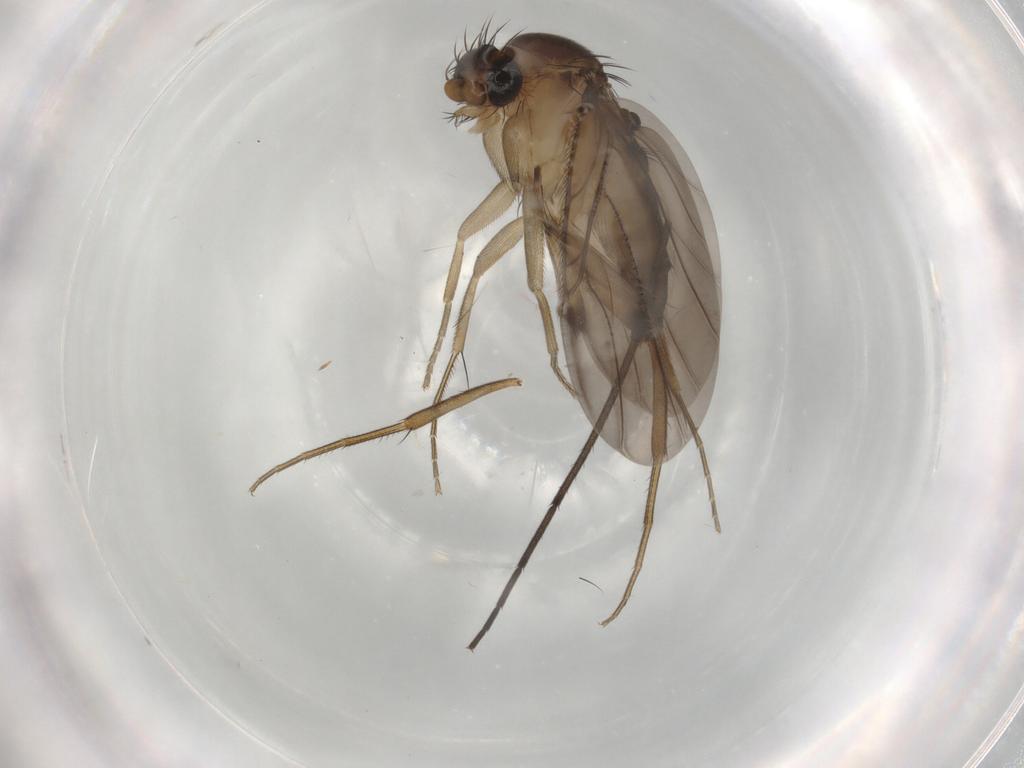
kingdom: Animalia
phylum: Arthropoda
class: Insecta
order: Diptera
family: Phoridae
